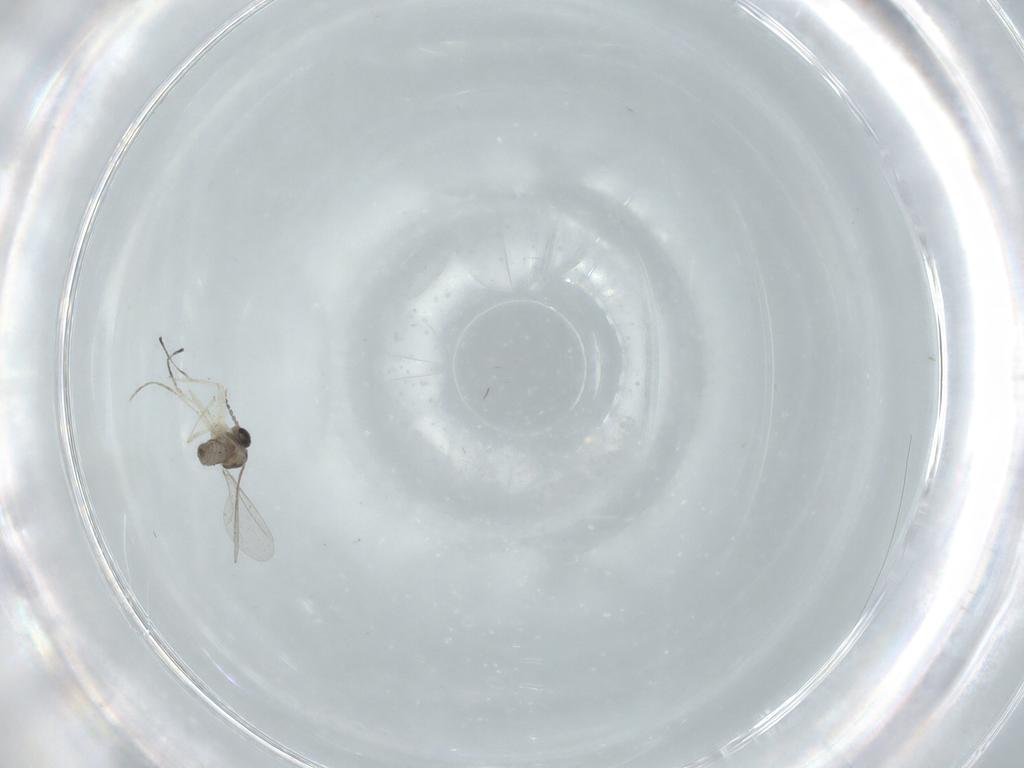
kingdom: Animalia
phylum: Arthropoda
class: Insecta
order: Diptera
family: Cecidomyiidae
